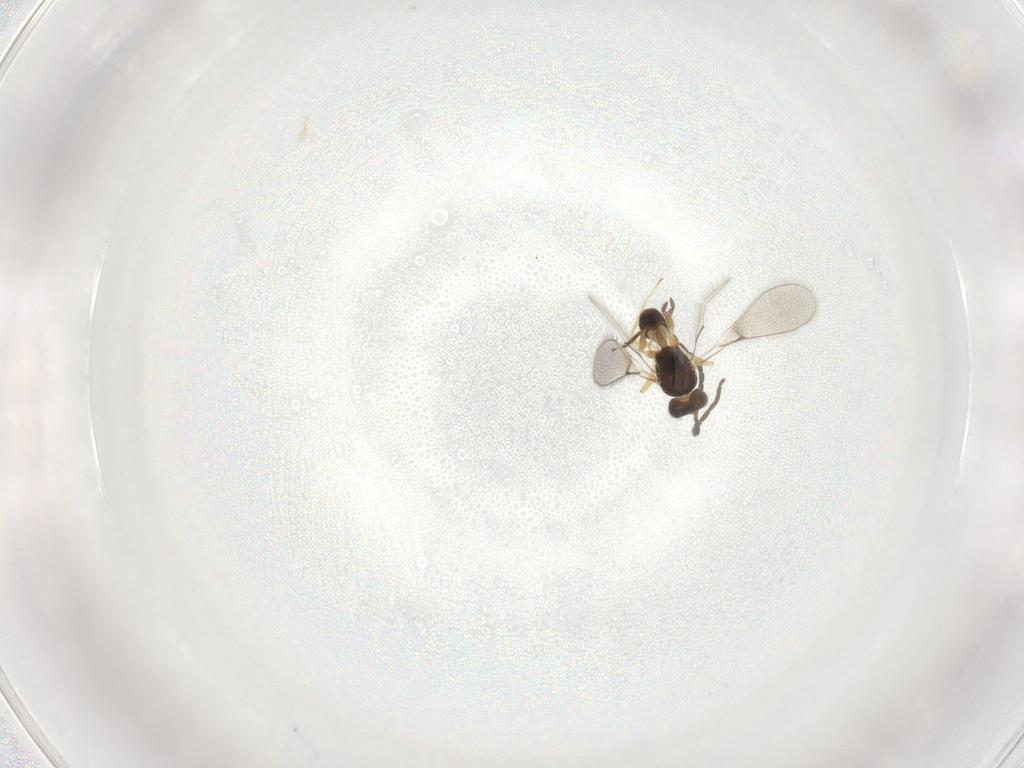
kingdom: Animalia
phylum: Arthropoda
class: Insecta
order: Hymenoptera
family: Mymaridae
